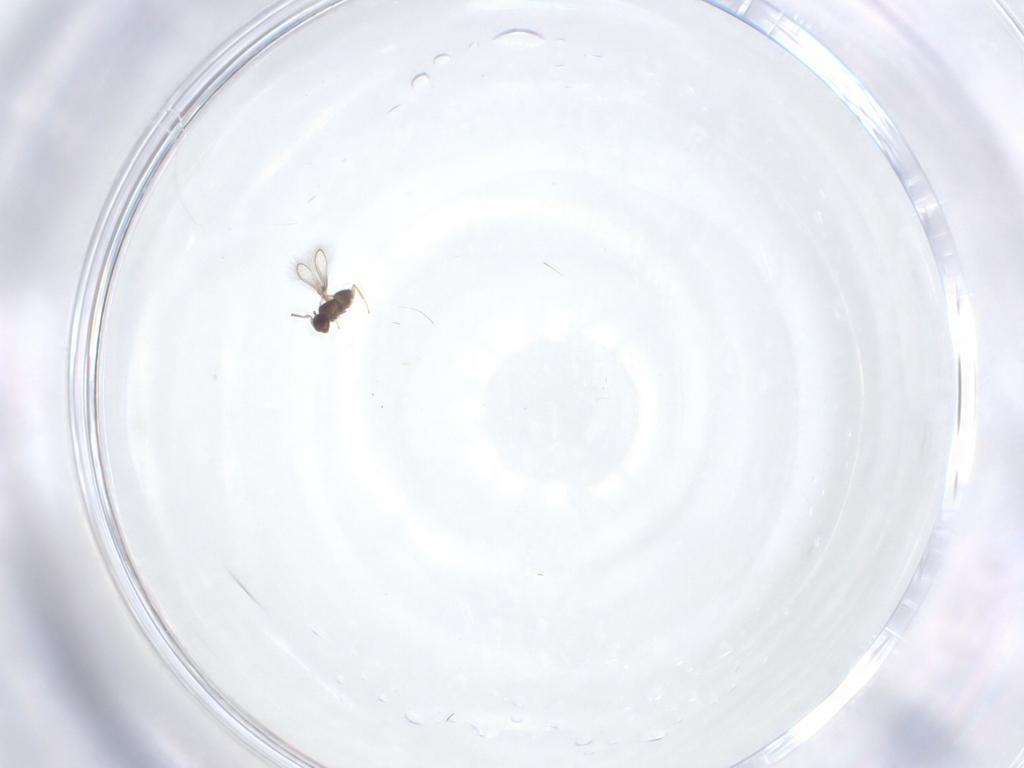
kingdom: Animalia
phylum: Arthropoda
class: Insecta
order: Hymenoptera
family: Mymaridae
